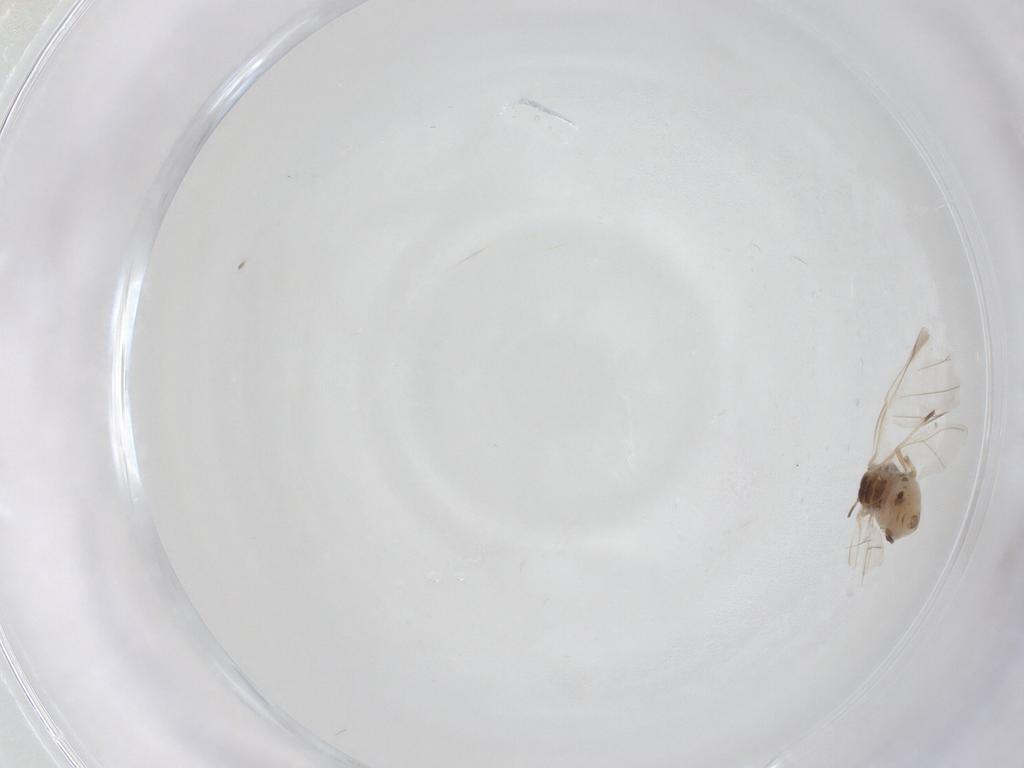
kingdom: Animalia
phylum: Arthropoda
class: Insecta
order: Hemiptera
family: Aphididae
